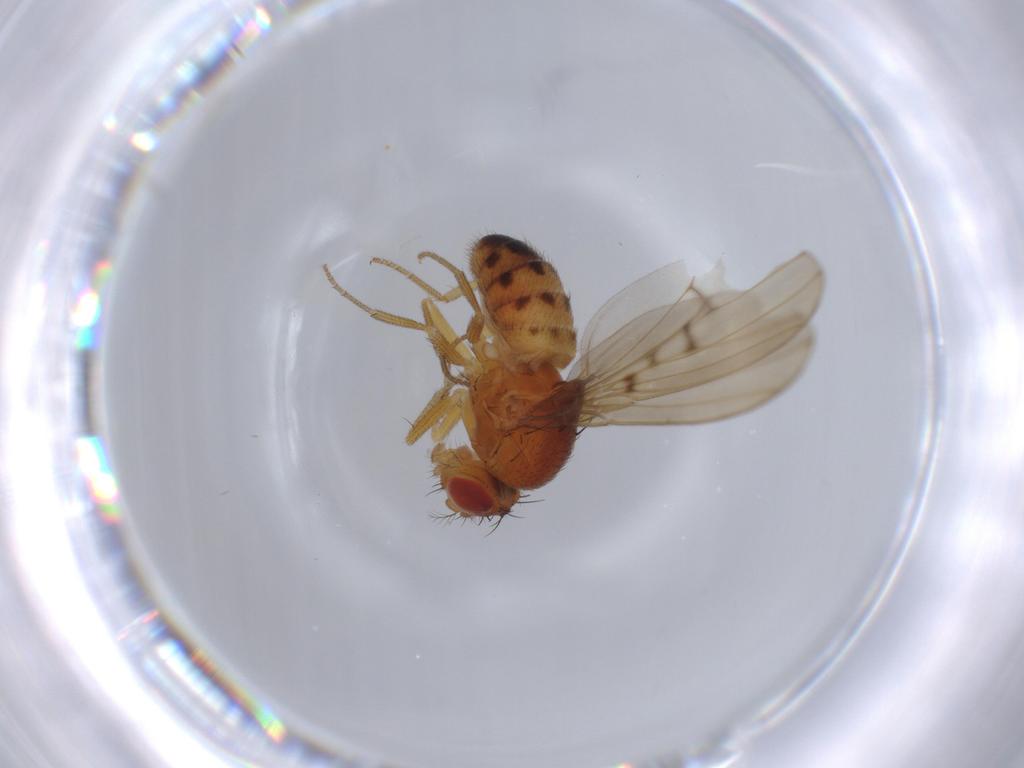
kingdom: Animalia
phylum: Arthropoda
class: Insecta
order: Diptera
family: Drosophilidae
